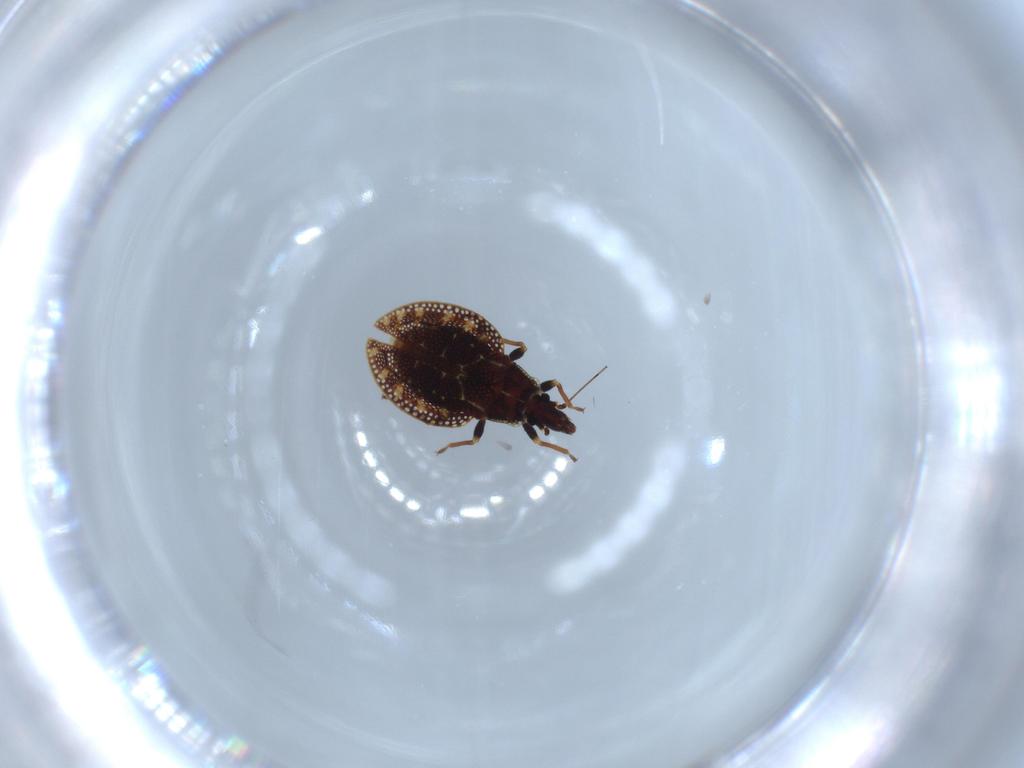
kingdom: Animalia
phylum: Arthropoda
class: Insecta
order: Hemiptera
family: Tingidae
